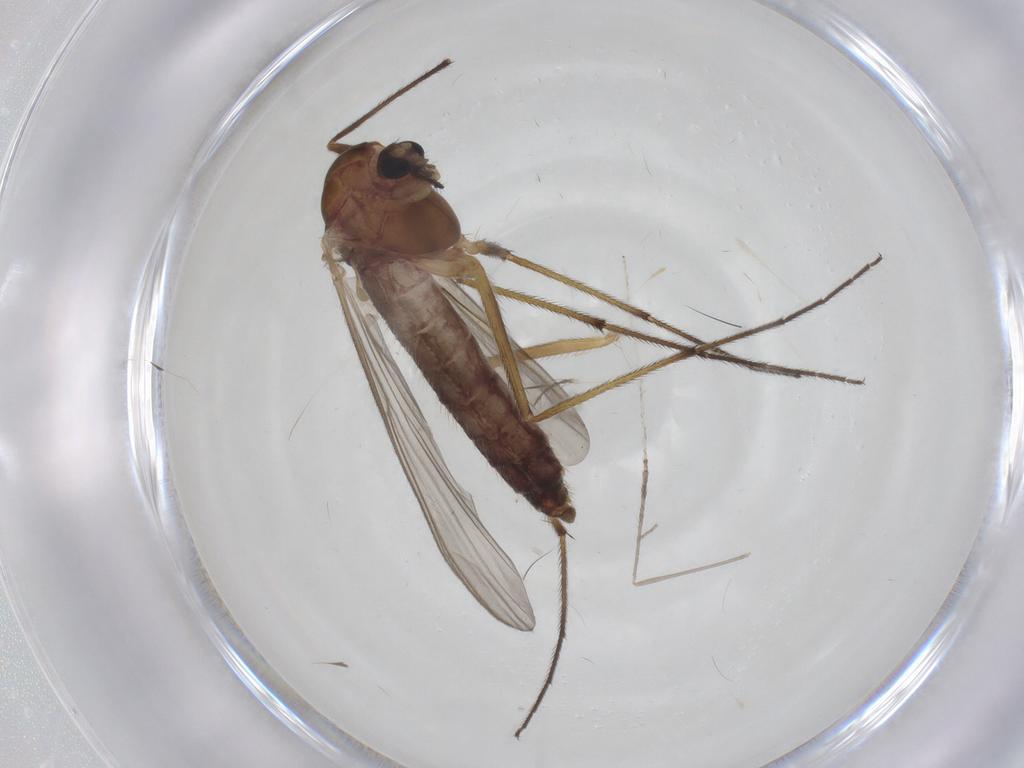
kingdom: Animalia
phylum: Arthropoda
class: Insecta
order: Diptera
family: Chironomidae
